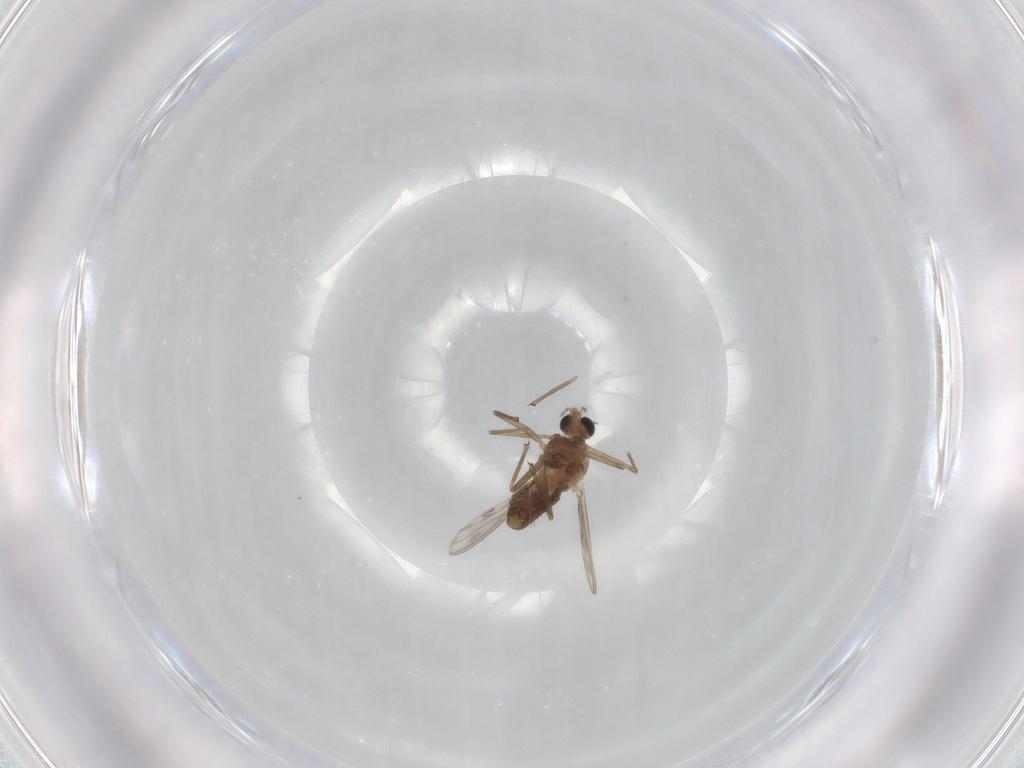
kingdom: Animalia
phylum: Arthropoda
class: Insecta
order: Diptera
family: Chironomidae
